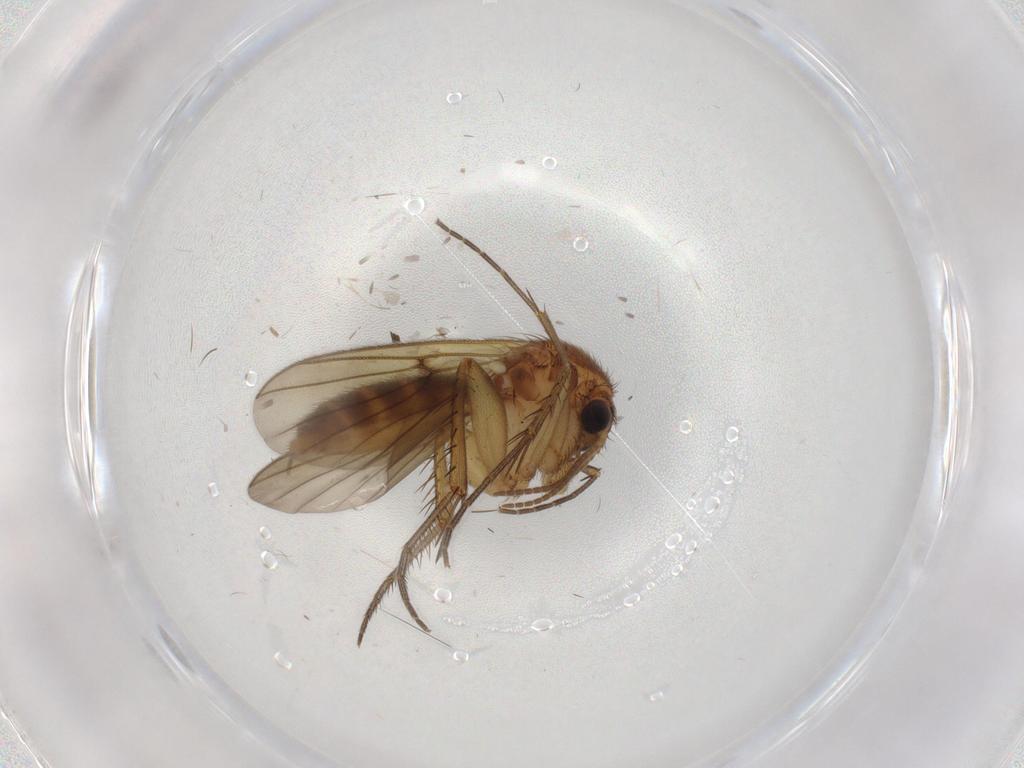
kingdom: Animalia
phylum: Arthropoda
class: Insecta
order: Diptera
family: Mycetophilidae
